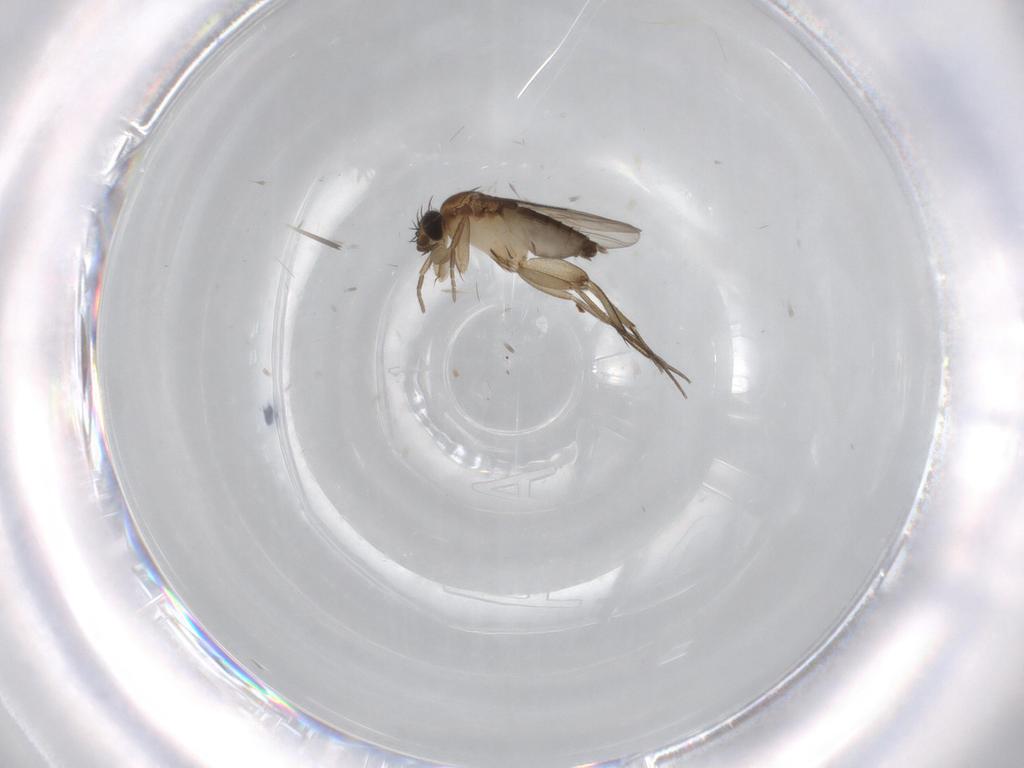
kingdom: Animalia
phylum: Arthropoda
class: Insecta
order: Diptera
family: Phoridae
